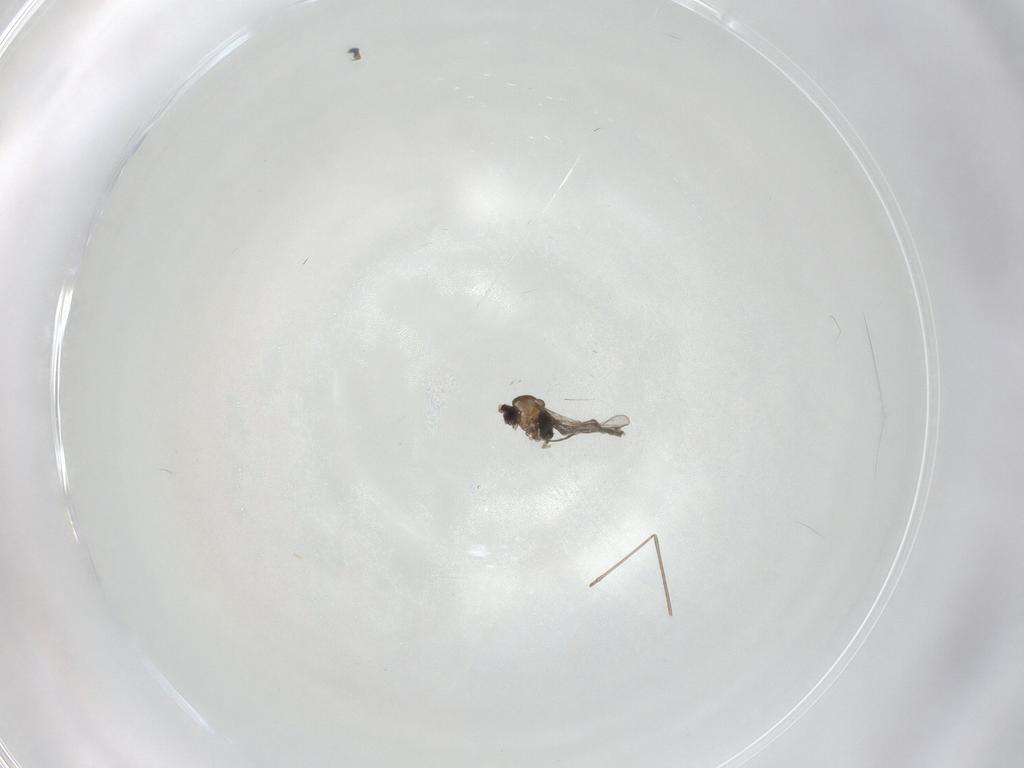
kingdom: Animalia
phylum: Arthropoda
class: Insecta
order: Diptera
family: Cecidomyiidae
